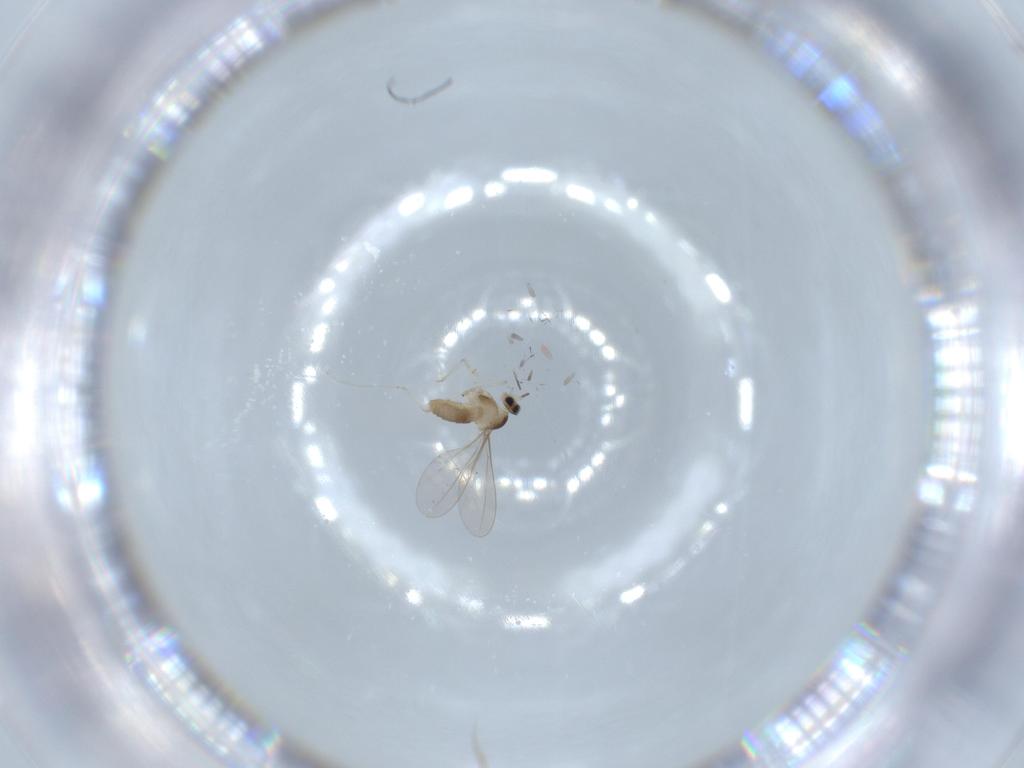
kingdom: Animalia
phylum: Arthropoda
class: Insecta
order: Diptera
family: Cecidomyiidae
